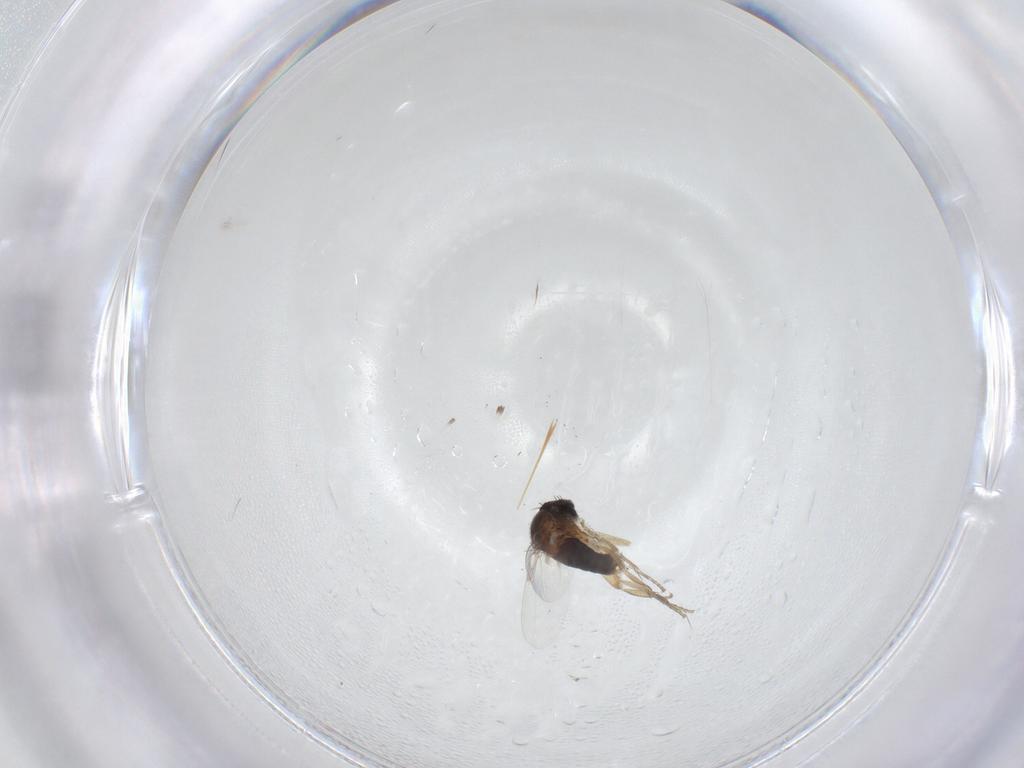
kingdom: Animalia
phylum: Arthropoda
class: Insecta
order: Diptera
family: Phoridae
